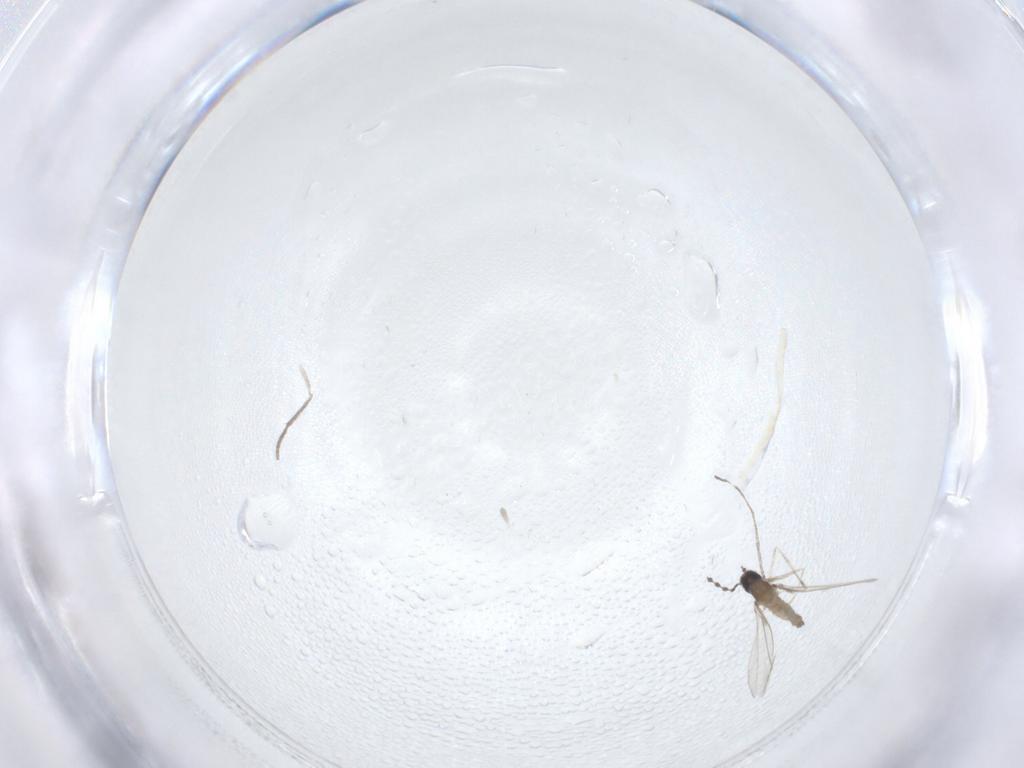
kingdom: Animalia
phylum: Arthropoda
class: Insecta
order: Diptera
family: Cecidomyiidae
